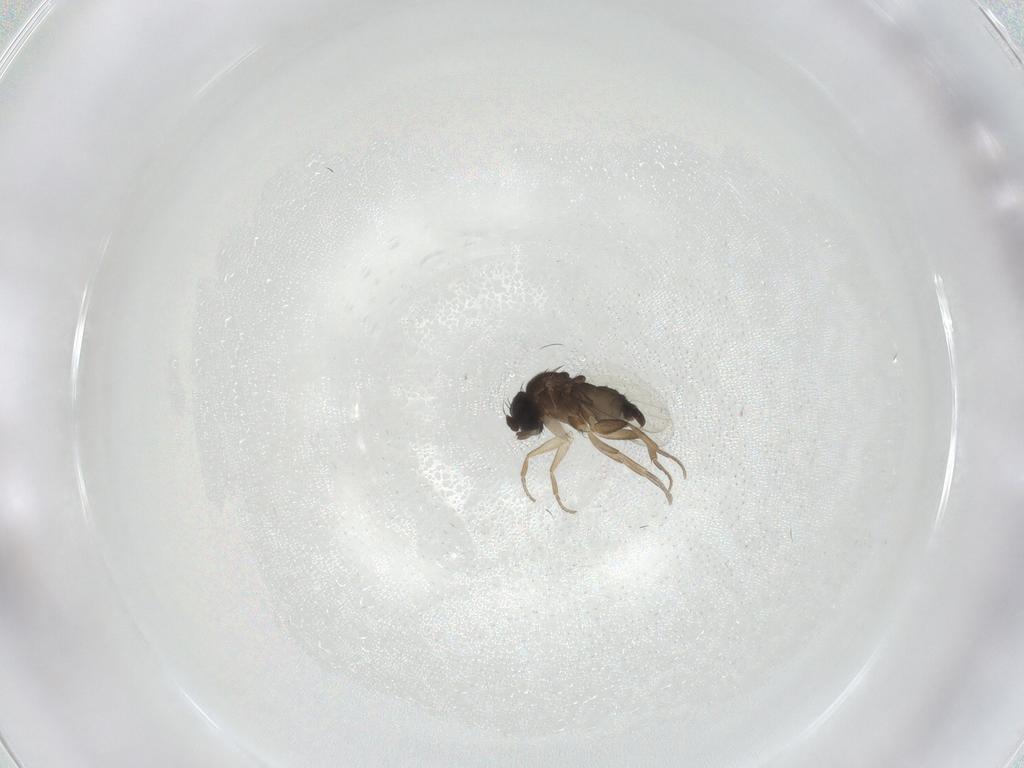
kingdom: Animalia
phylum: Arthropoda
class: Insecta
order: Diptera
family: Phoridae
